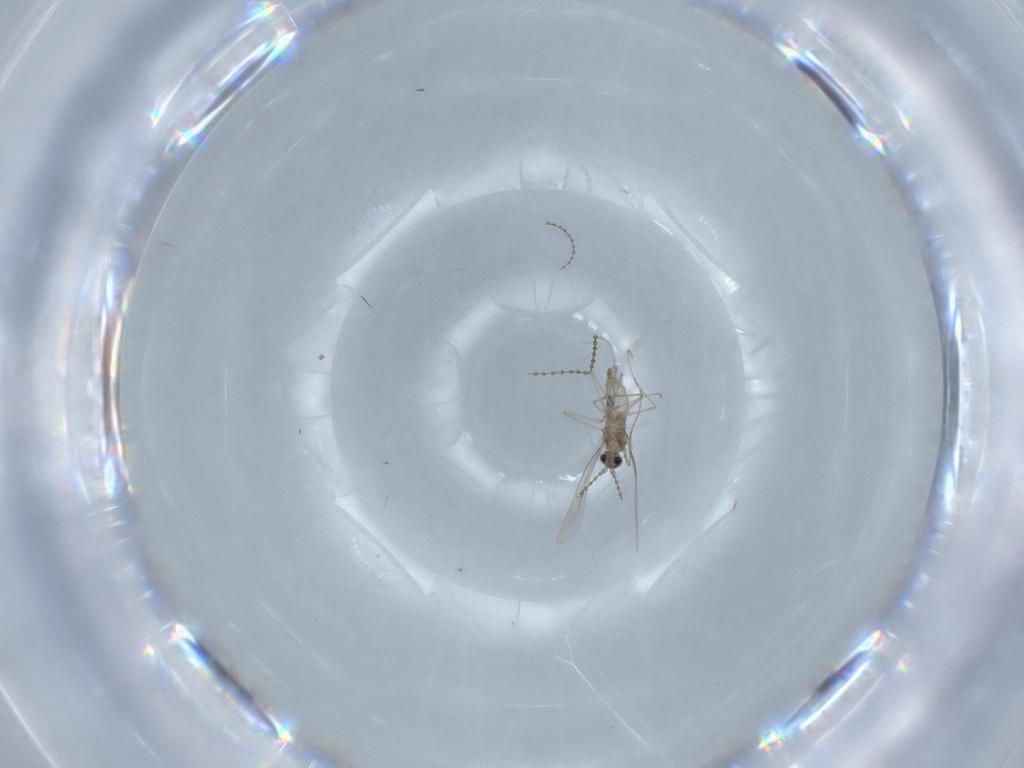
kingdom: Animalia
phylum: Arthropoda
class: Insecta
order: Diptera
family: Cecidomyiidae
